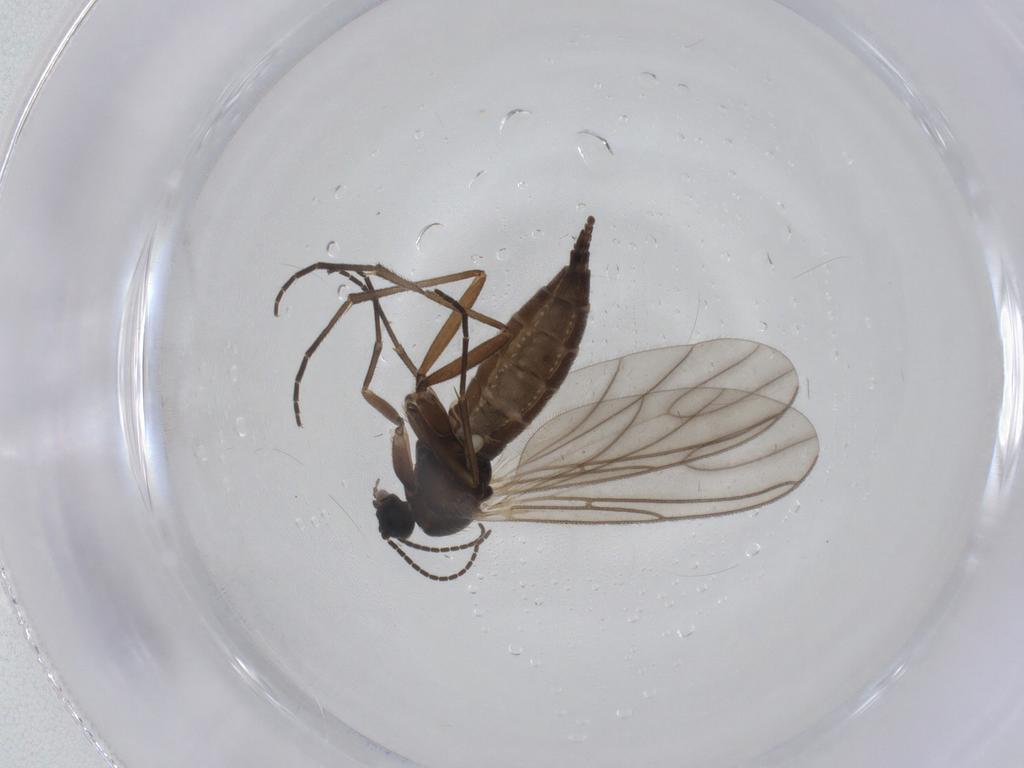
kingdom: Animalia
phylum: Arthropoda
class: Insecta
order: Diptera
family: Sciaridae
